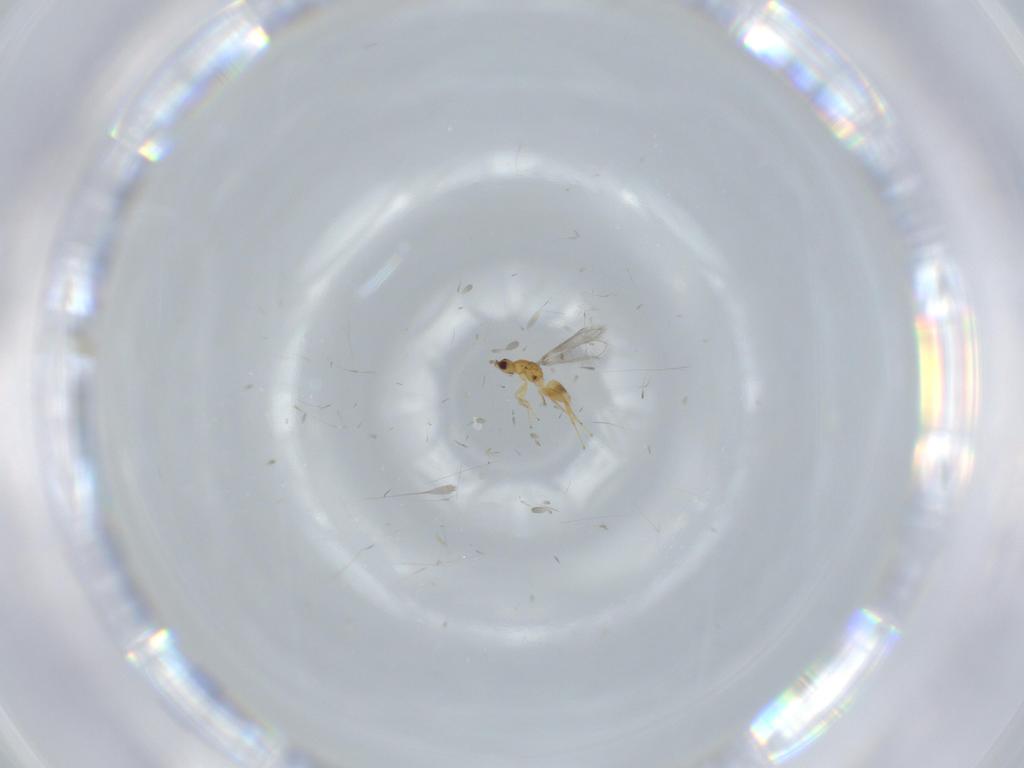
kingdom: Animalia
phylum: Arthropoda
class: Insecta
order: Hymenoptera
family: Mymaridae
